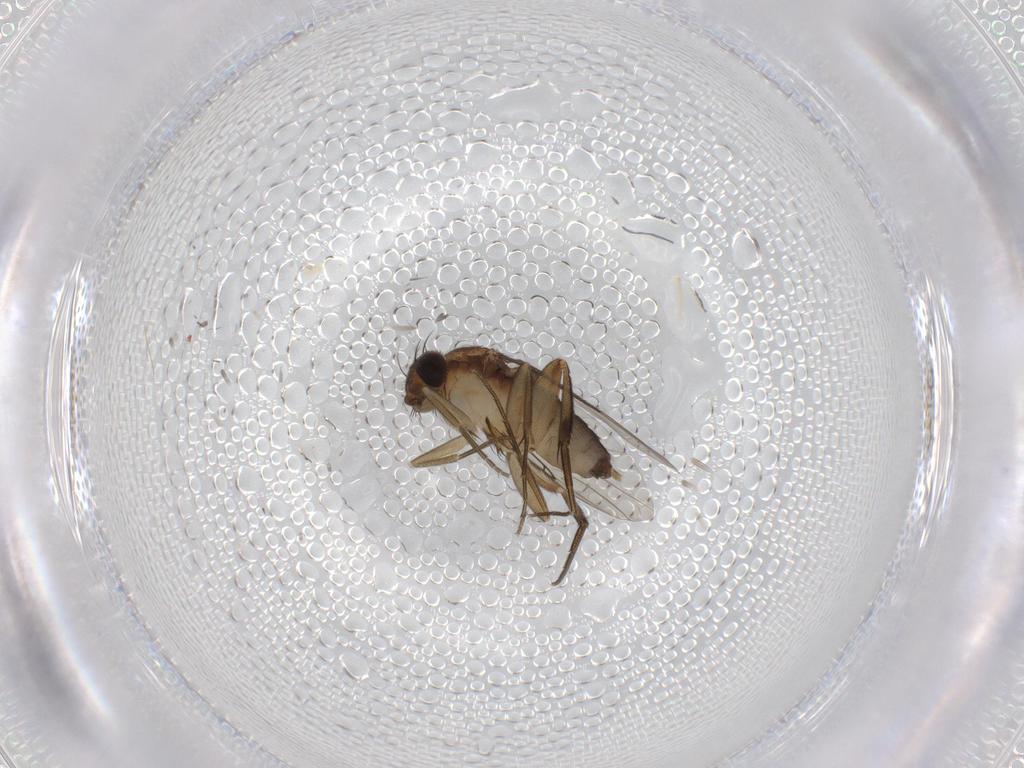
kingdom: Animalia
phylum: Arthropoda
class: Insecta
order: Diptera
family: Phoridae
